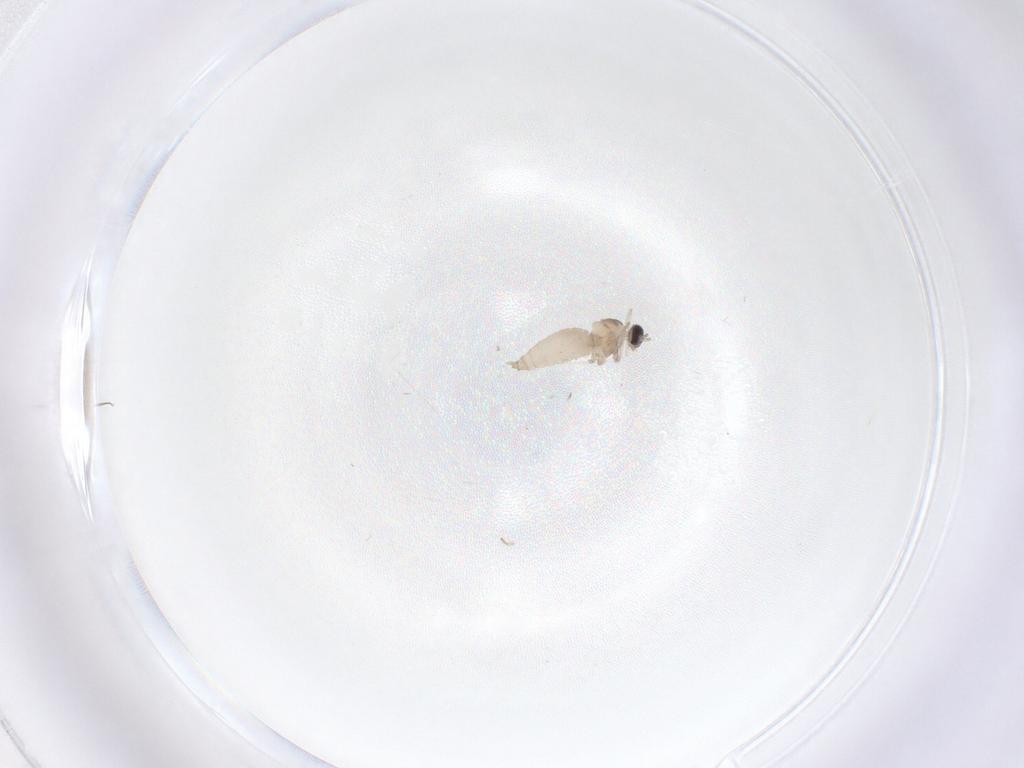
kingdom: Animalia
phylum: Arthropoda
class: Insecta
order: Diptera
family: Cecidomyiidae
